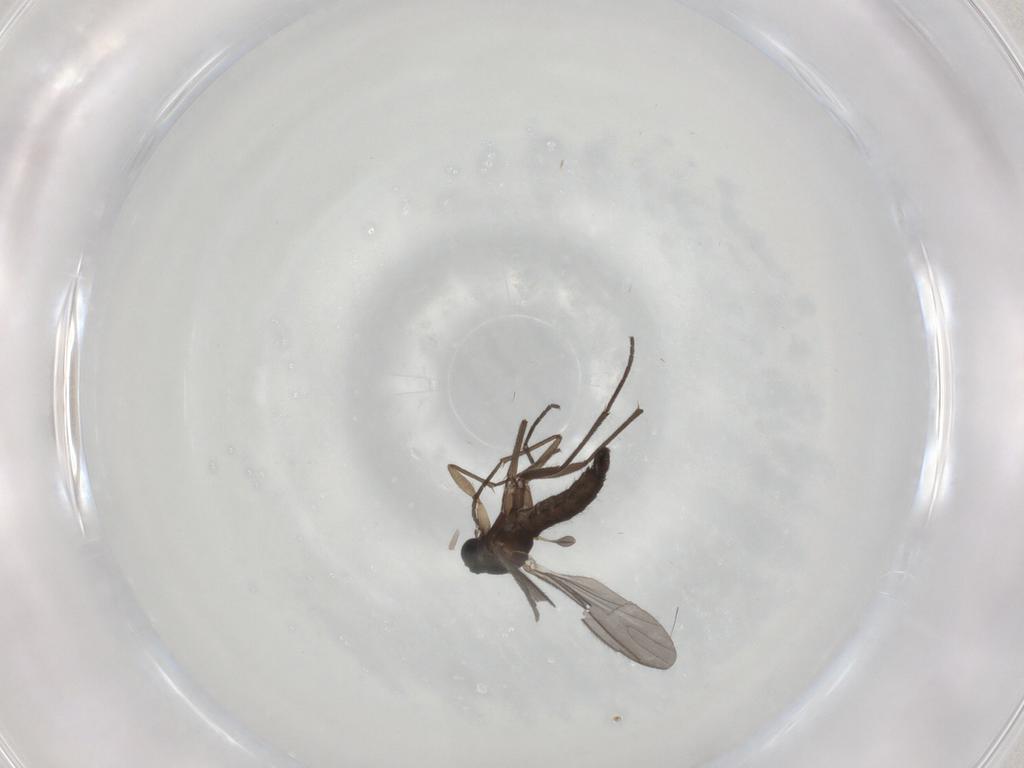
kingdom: Animalia
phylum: Arthropoda
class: Insecta
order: Diptera
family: Sciaridae
